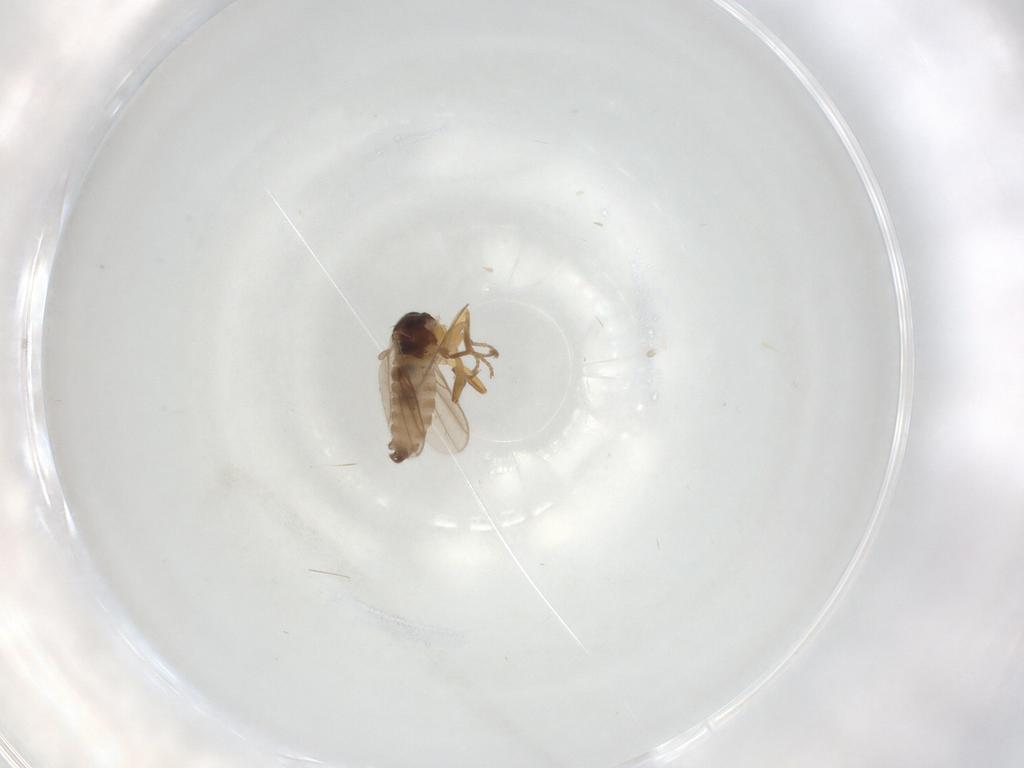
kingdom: Animalia
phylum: Arthropoda
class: Insecta
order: Diptera
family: Hybotidae
